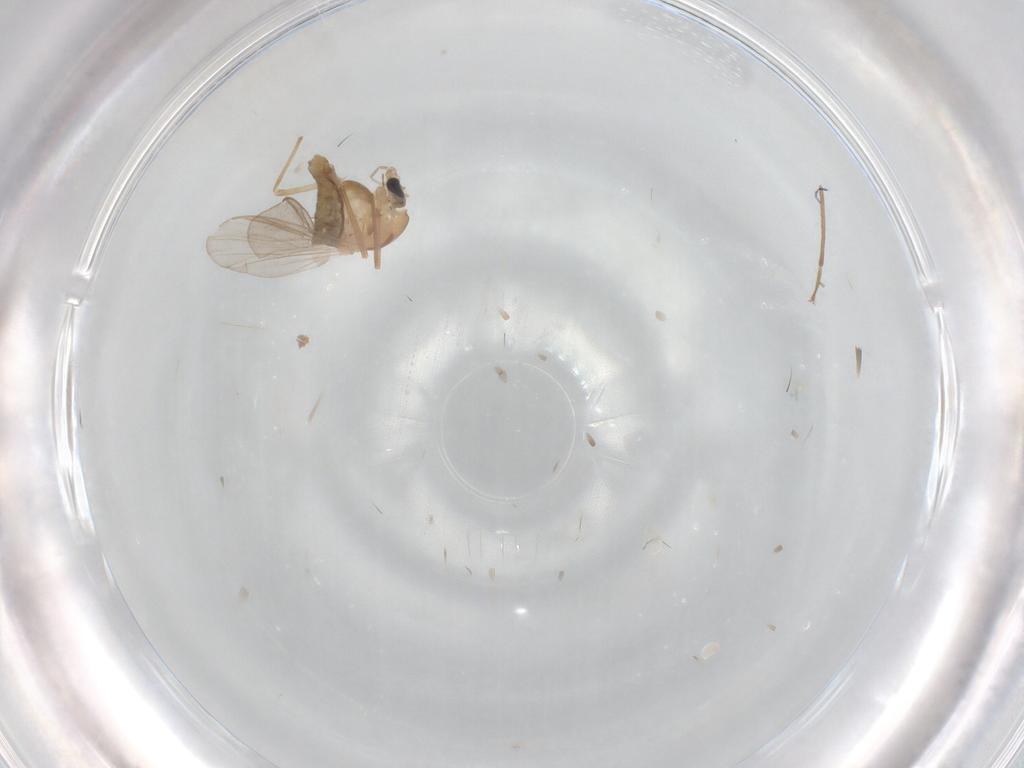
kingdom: Animalia
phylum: Arthropoda
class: Insecta
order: Diptera
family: Chironomidae
